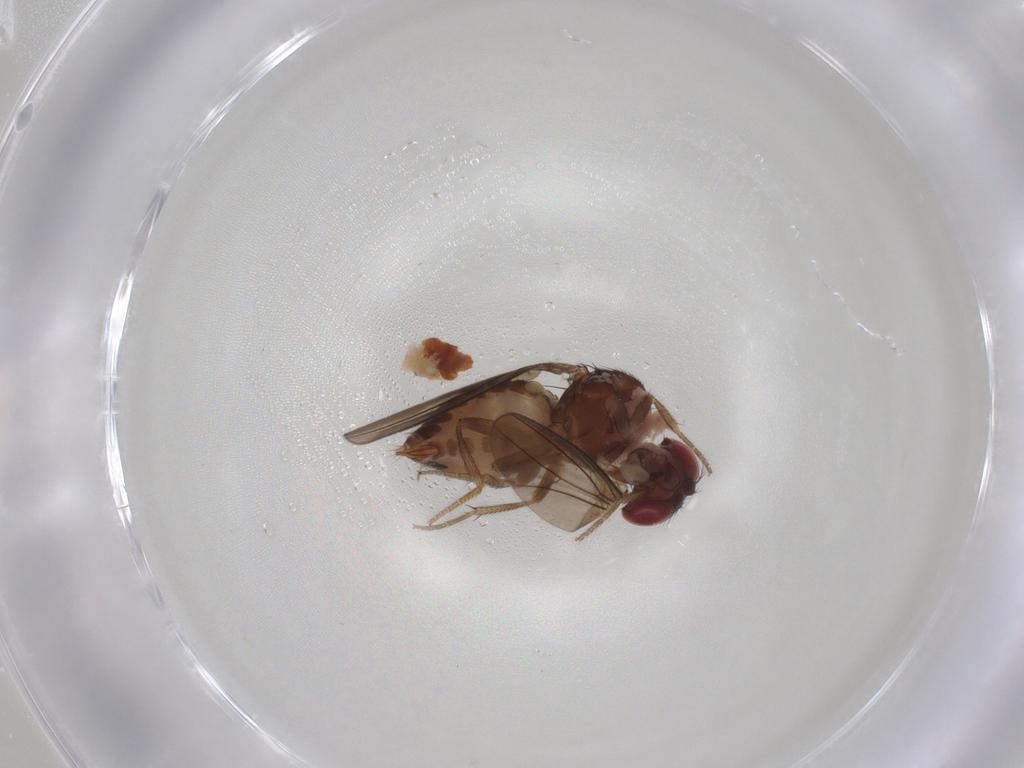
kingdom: Animalia
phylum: Arthropoda
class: Insecta
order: Diptera
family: Drosophilidae
